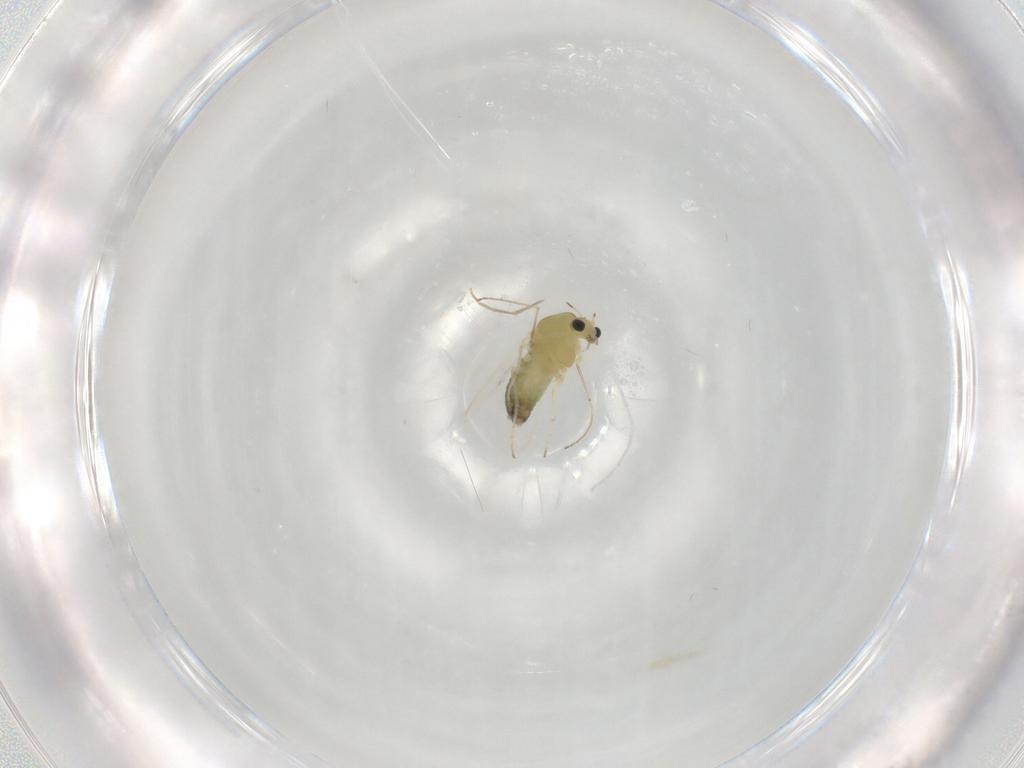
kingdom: Animalia
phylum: Arthropoda
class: Insecta
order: Diptera
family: Chironomidae
